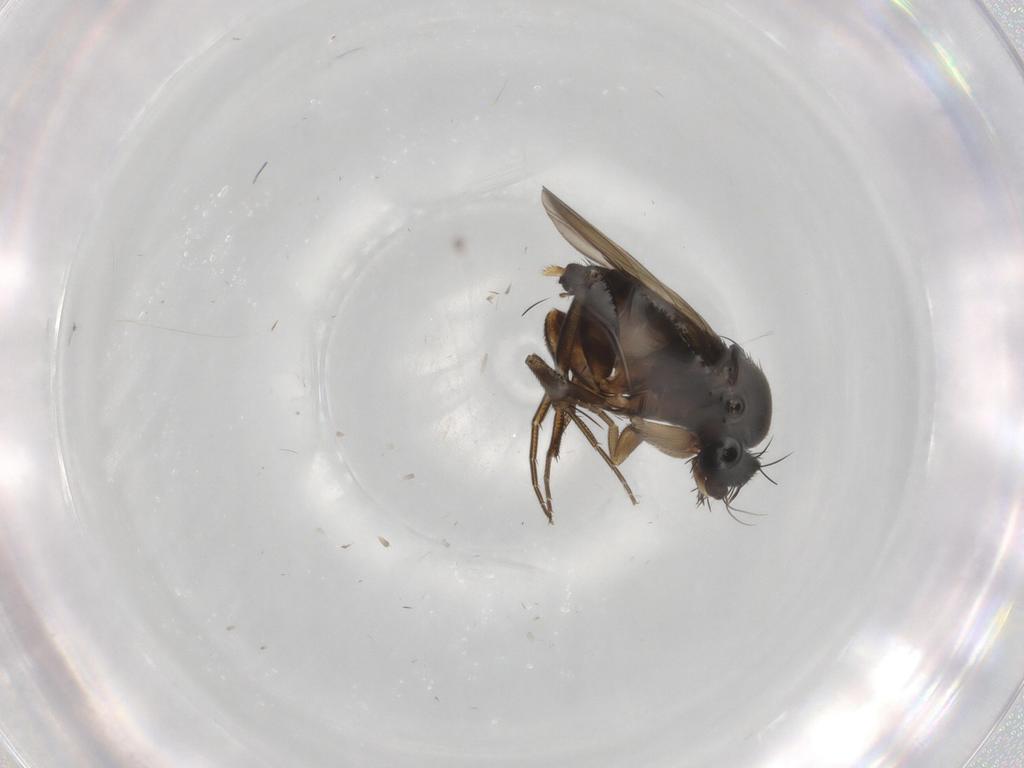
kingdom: Animalia
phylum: Arthropoda
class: Insecta
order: Diptera
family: Phoridae
